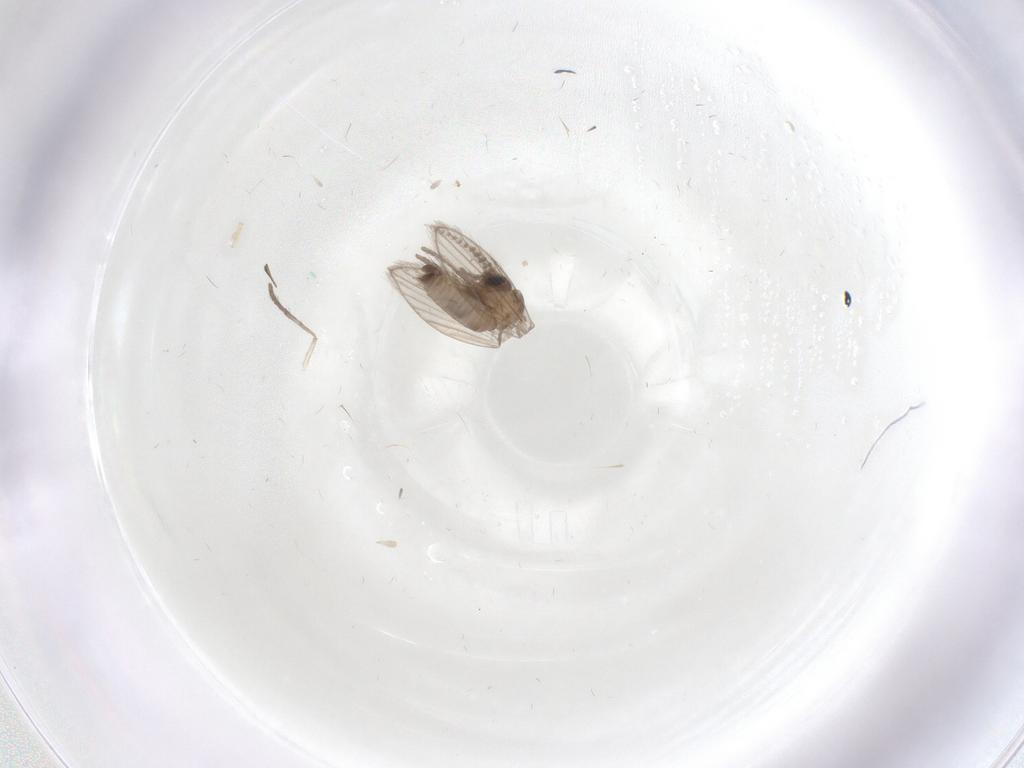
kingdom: Animalia
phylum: Arthropoda
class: Insecta
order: Diptera
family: Psychodidae
